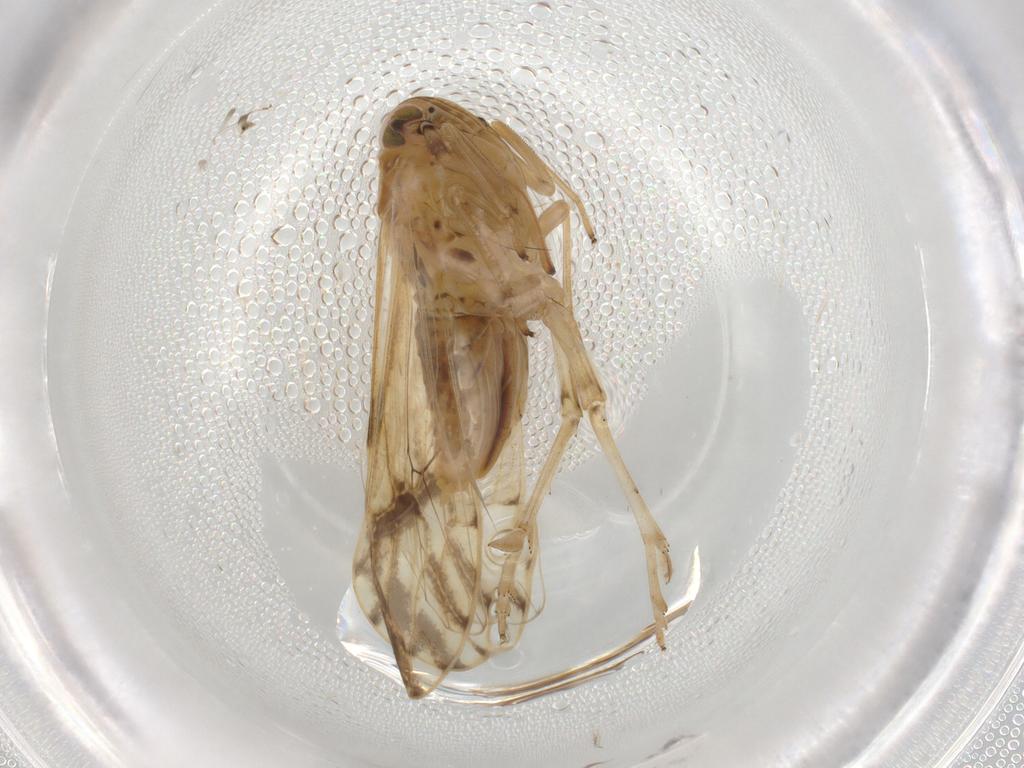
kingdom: Animalia
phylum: Arthropoda
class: Insecta
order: Hemiptera
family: Delphacidae
